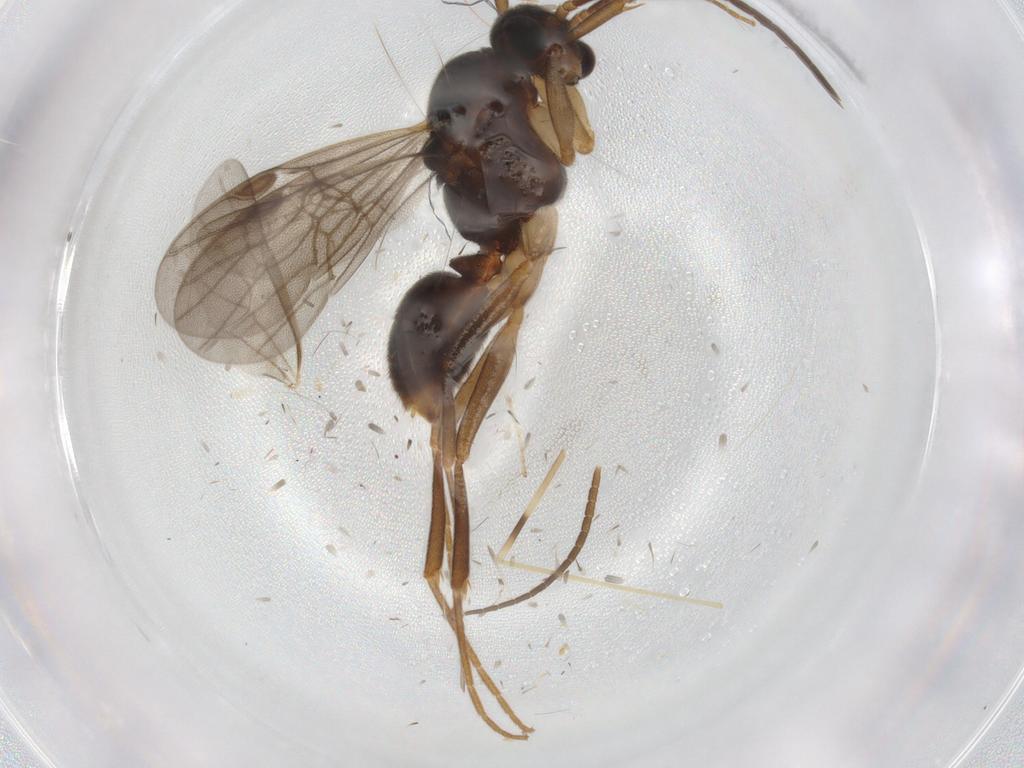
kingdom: Animalia
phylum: Arthropoda
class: Insecta
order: Hymenoptera
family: Formicidae
